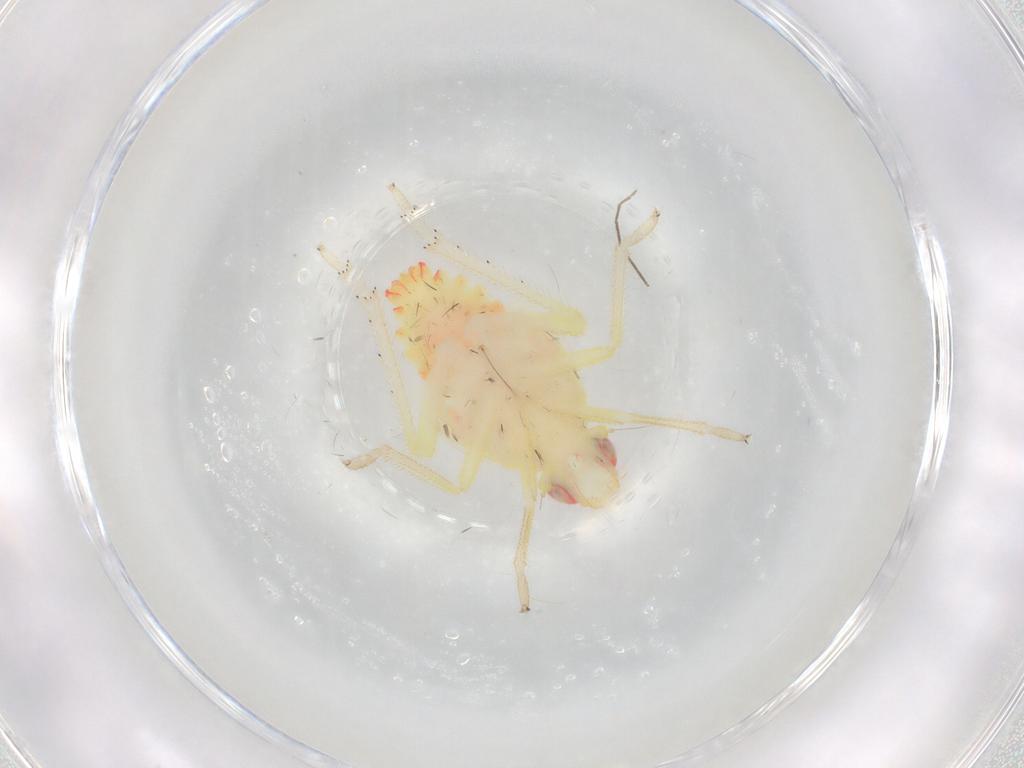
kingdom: Animalia
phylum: Arthropoda
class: Insecta
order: Hemiptera
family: Tropiduchidae
